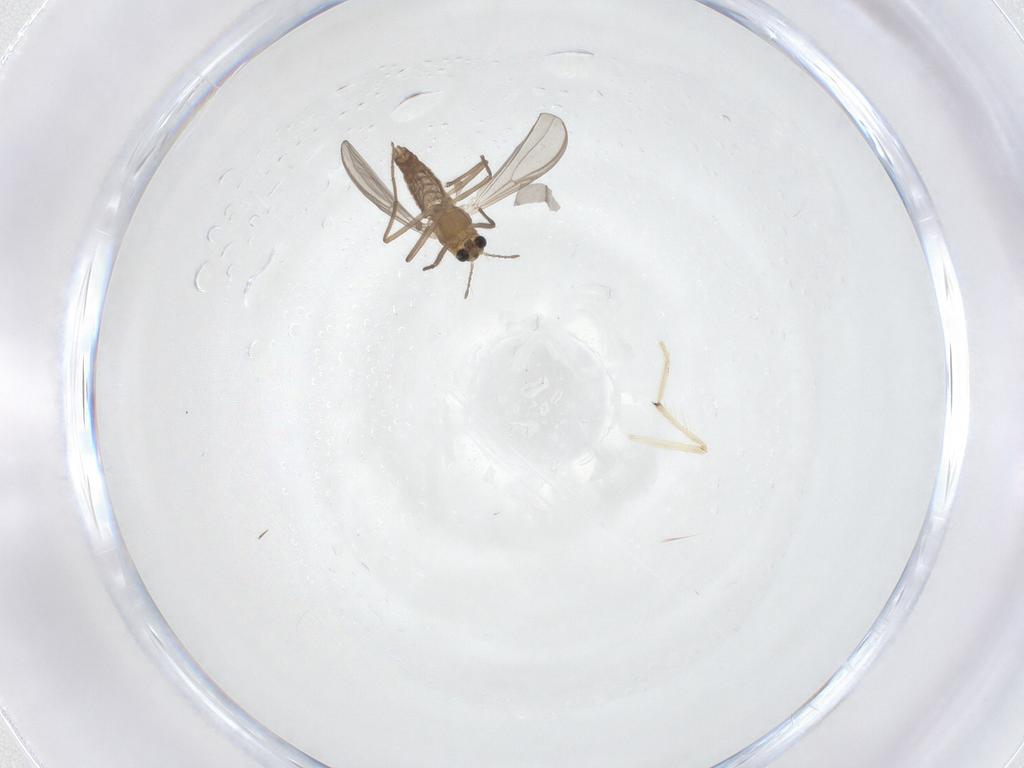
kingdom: Animalia
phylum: Arthropoda
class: Insecta
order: Diptera
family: Chironomidae
